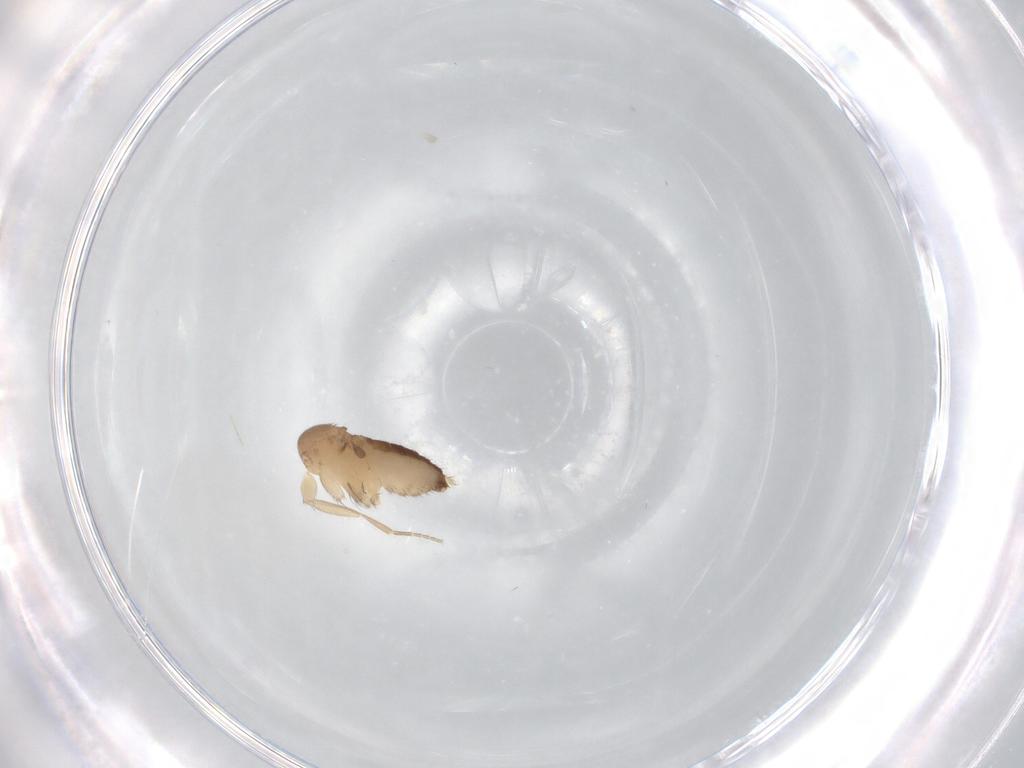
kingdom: Animalia
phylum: Arthropoda
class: Insecta
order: Diptera
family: Phoridae
